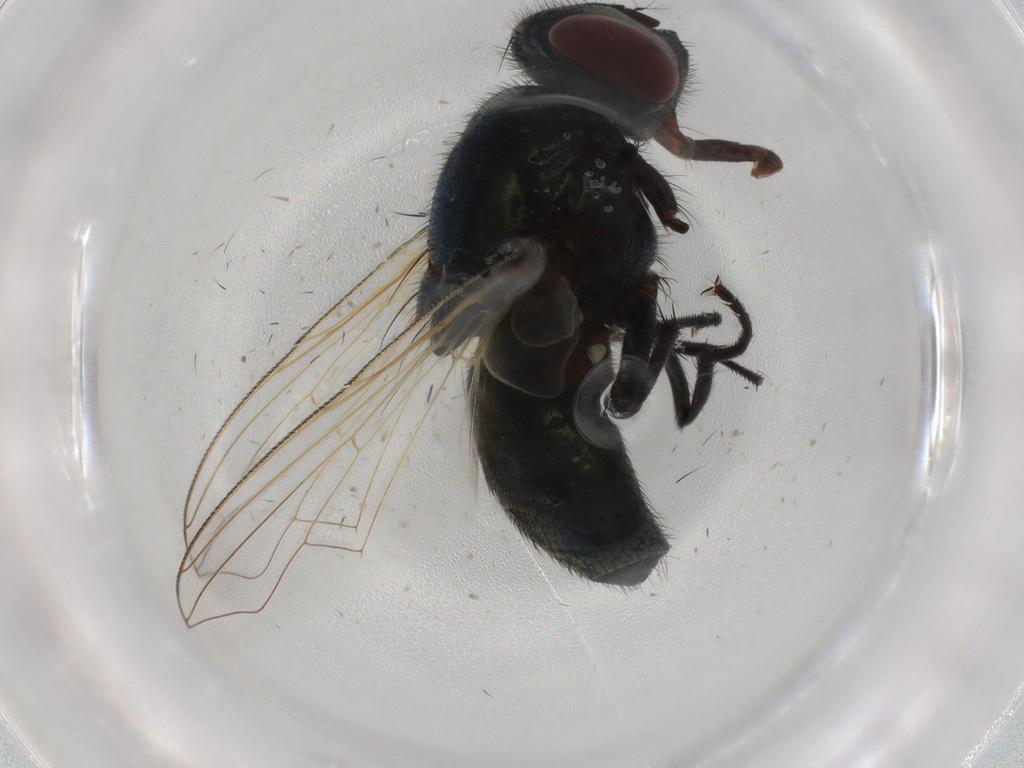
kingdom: Animalia
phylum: Arthropoda
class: Insecta
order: Diptera
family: Muscidae
